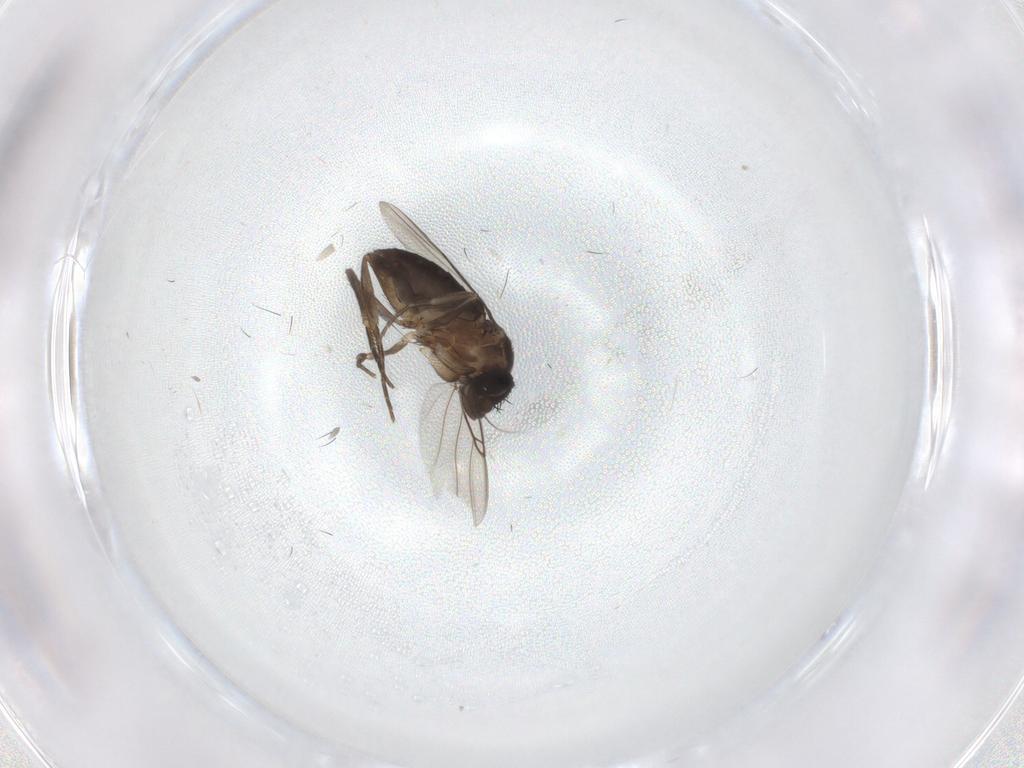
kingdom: Animalia
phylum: Arthropoda
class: Insecta
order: Diptera
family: Phoridae
